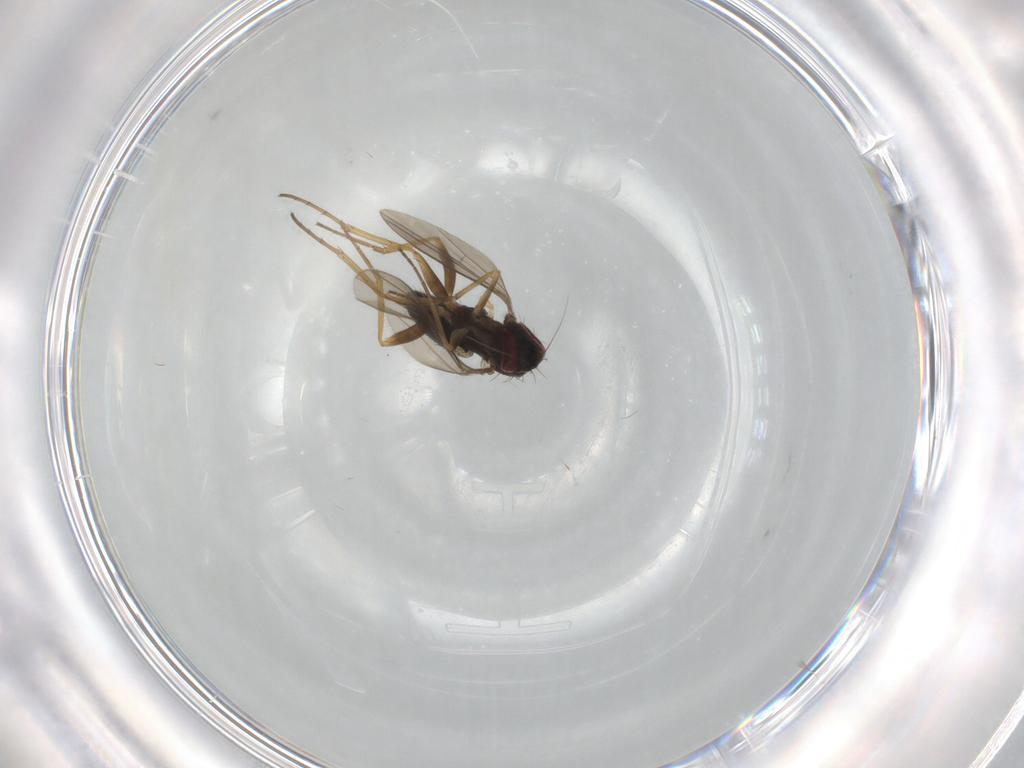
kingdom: Animalia
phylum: Arthropoda
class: Insecta
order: Diptera
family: Dolichopodidae
